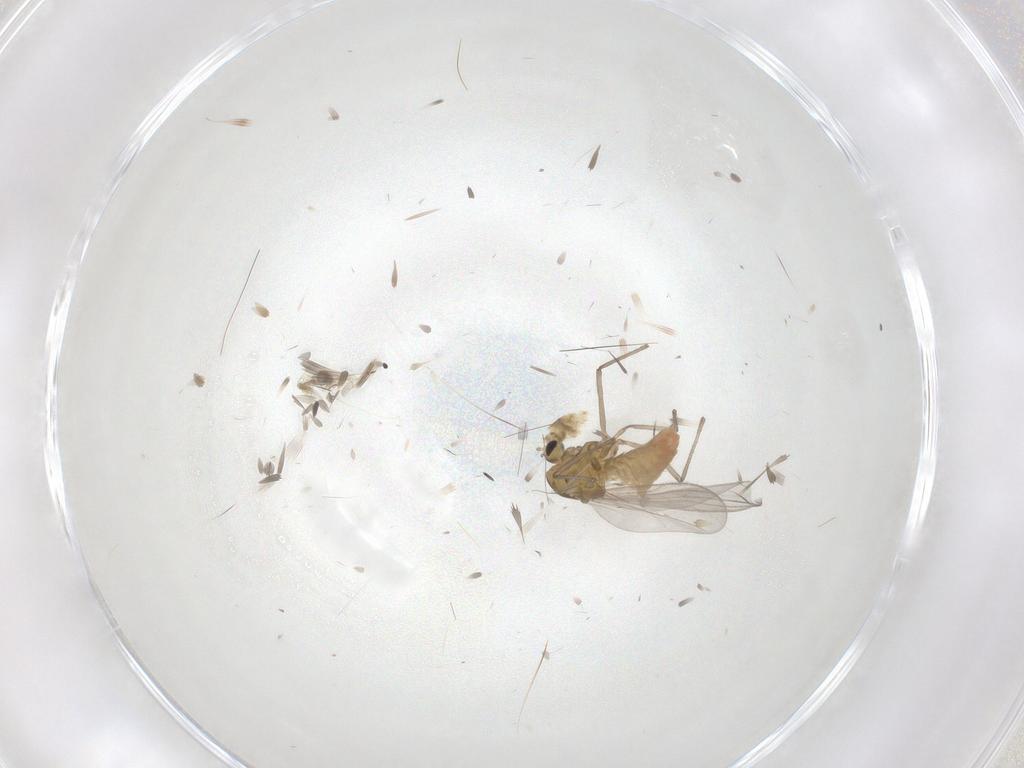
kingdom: Animalia
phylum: Arthropoda
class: Insecta
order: Diptera
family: Chironomidae
